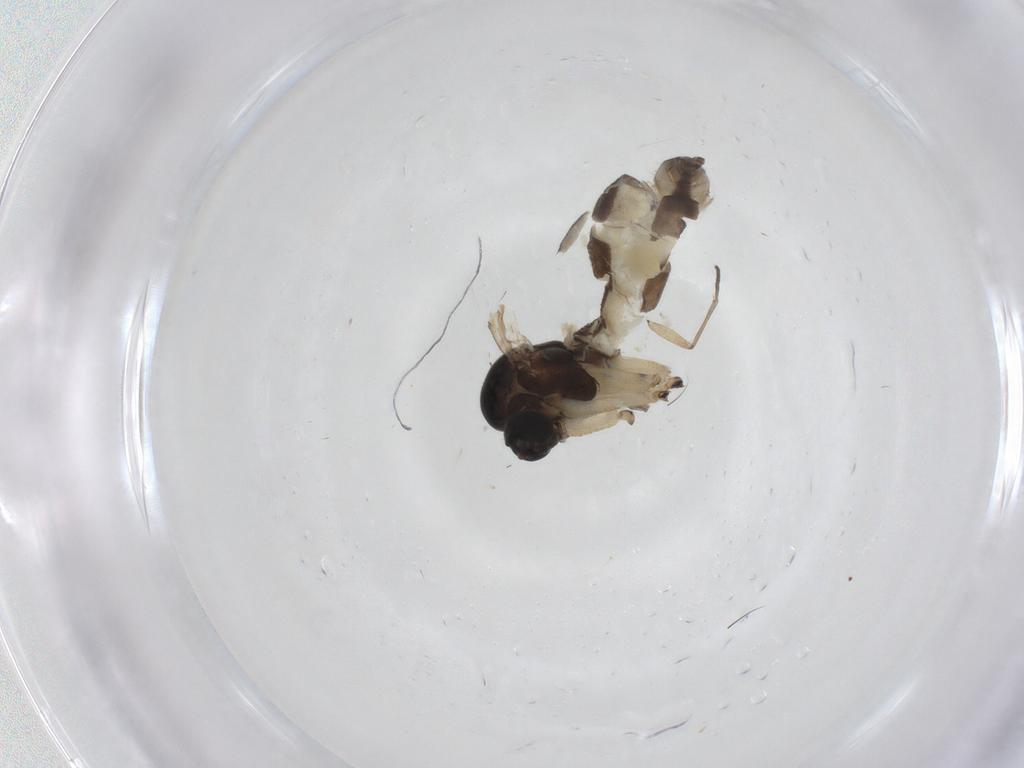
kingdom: Animalia
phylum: Arthropoda
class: Insecta
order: Diptera
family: Sciaridae
